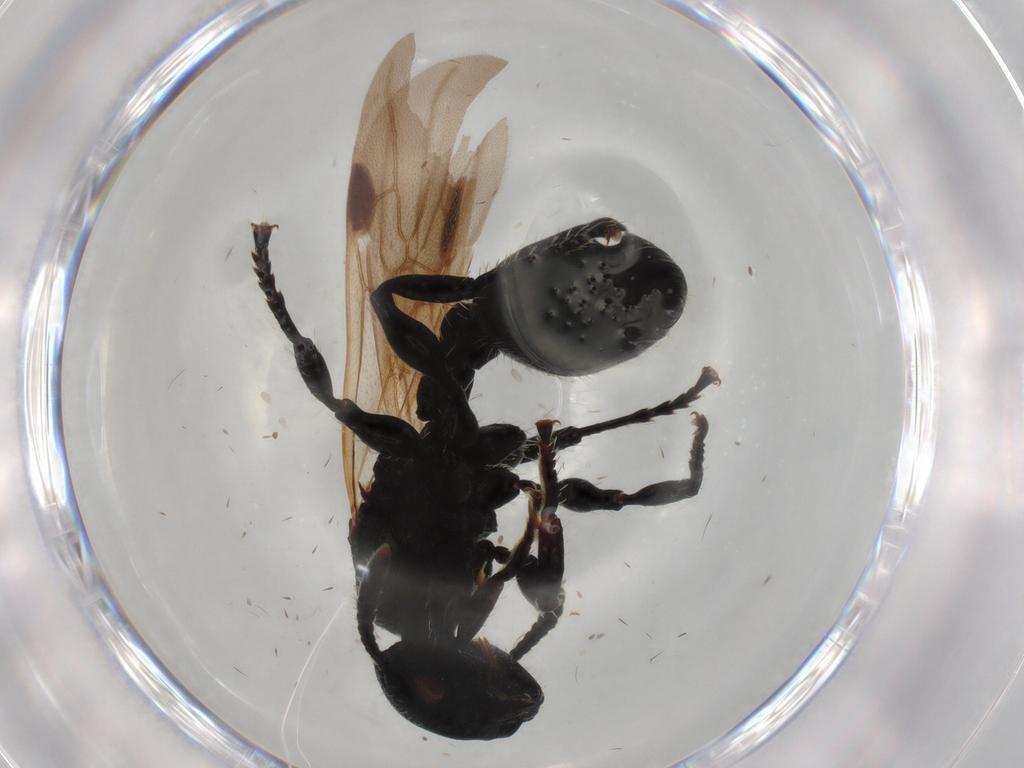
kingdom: Animalia
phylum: Arthropoda
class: Insecta
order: Hymenoptera
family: Formicidae
